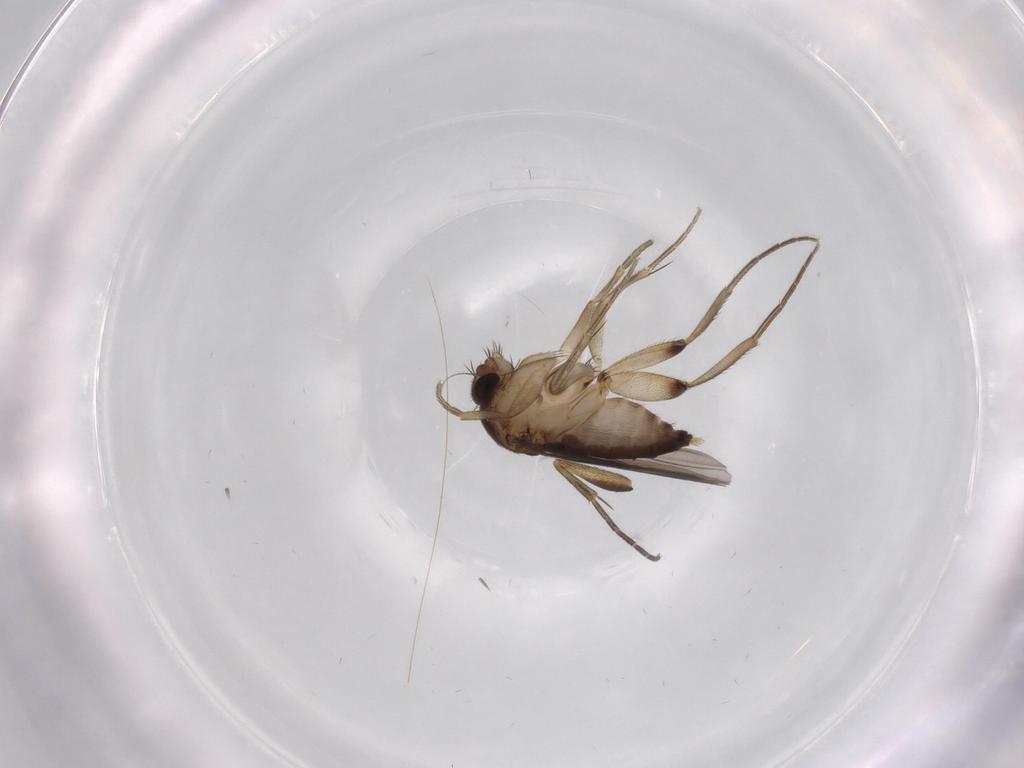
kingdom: Animalia
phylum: Arthropoda
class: Insecta
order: Diptera
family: Phoridae
